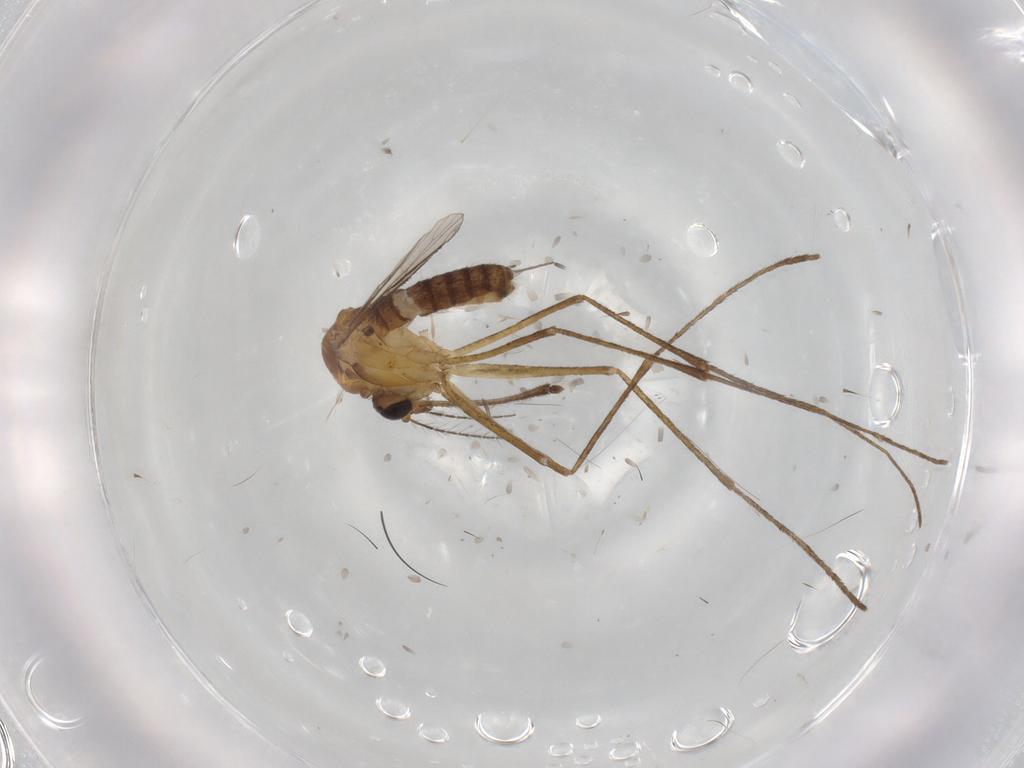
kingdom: Animalia
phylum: Arthropoda
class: Insecta
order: Diptera
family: Culicidae
